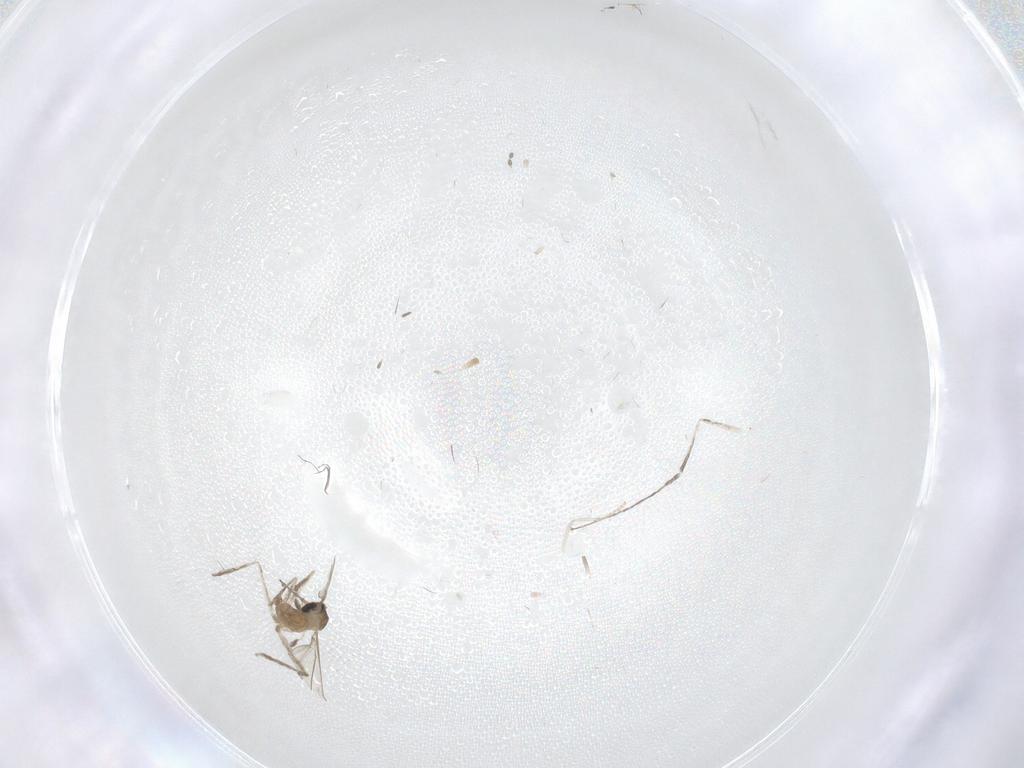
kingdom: Animalia
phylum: Arthropoda
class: Insecta
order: Diptera
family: Cecidomyiidae
